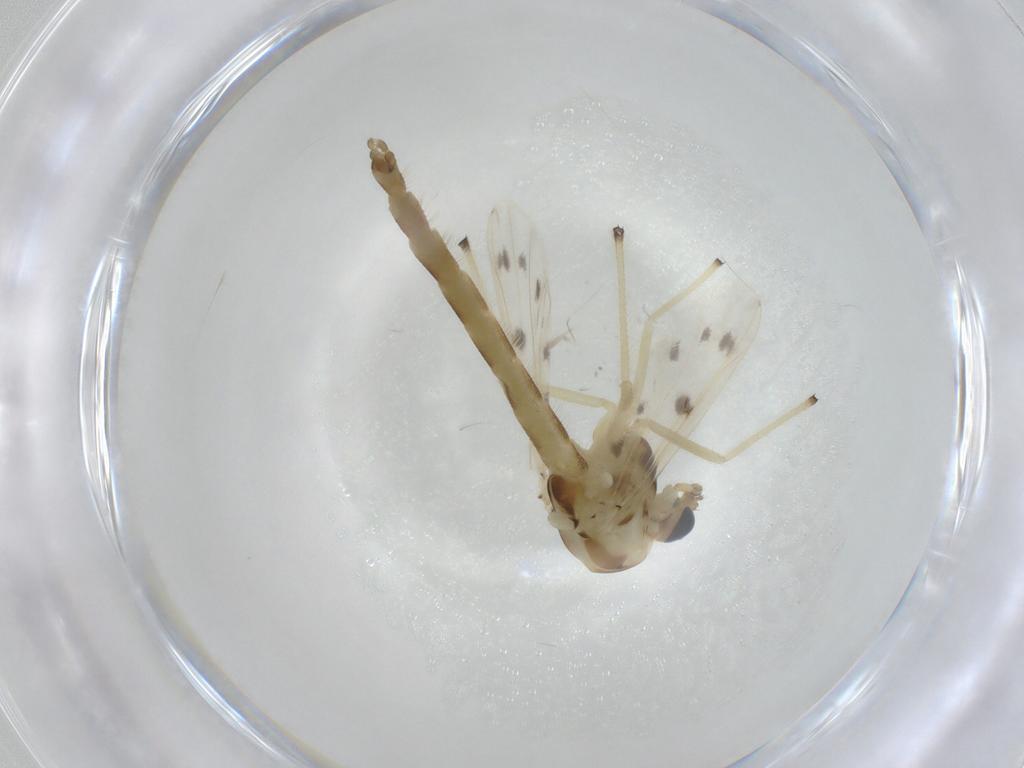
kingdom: Animalia
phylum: Arthropoda
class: Insecta
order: Diptera
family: Chironomidae
